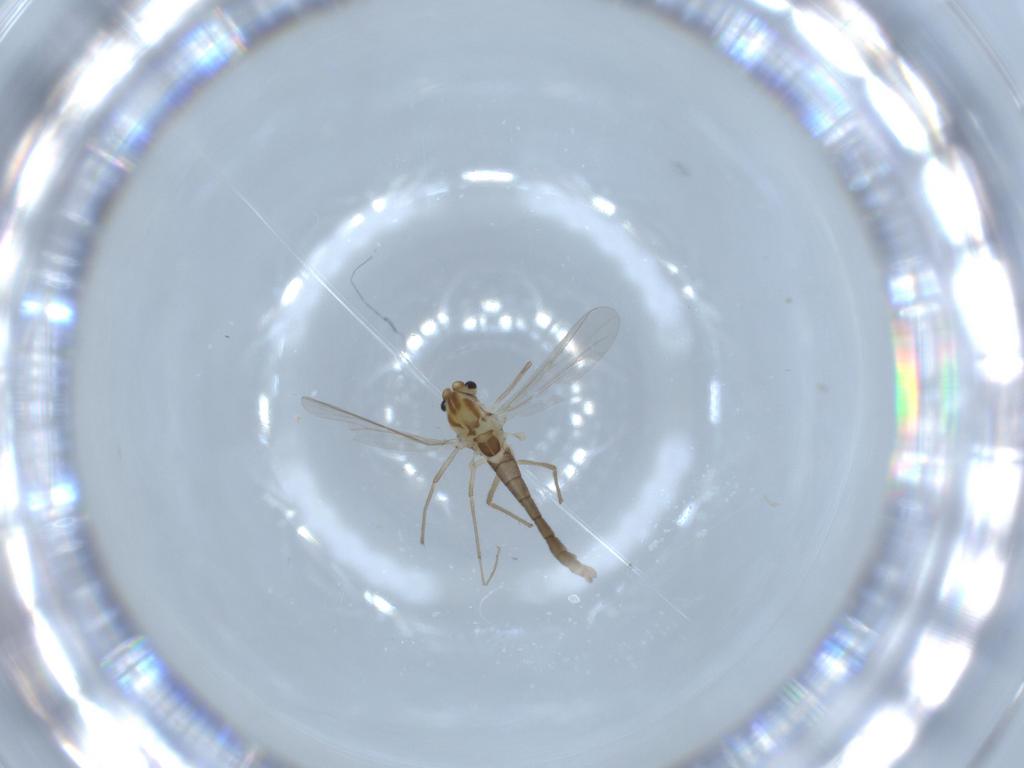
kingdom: Animalia
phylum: Arthropoda
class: Insecta
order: Diptera
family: Chironomidae
